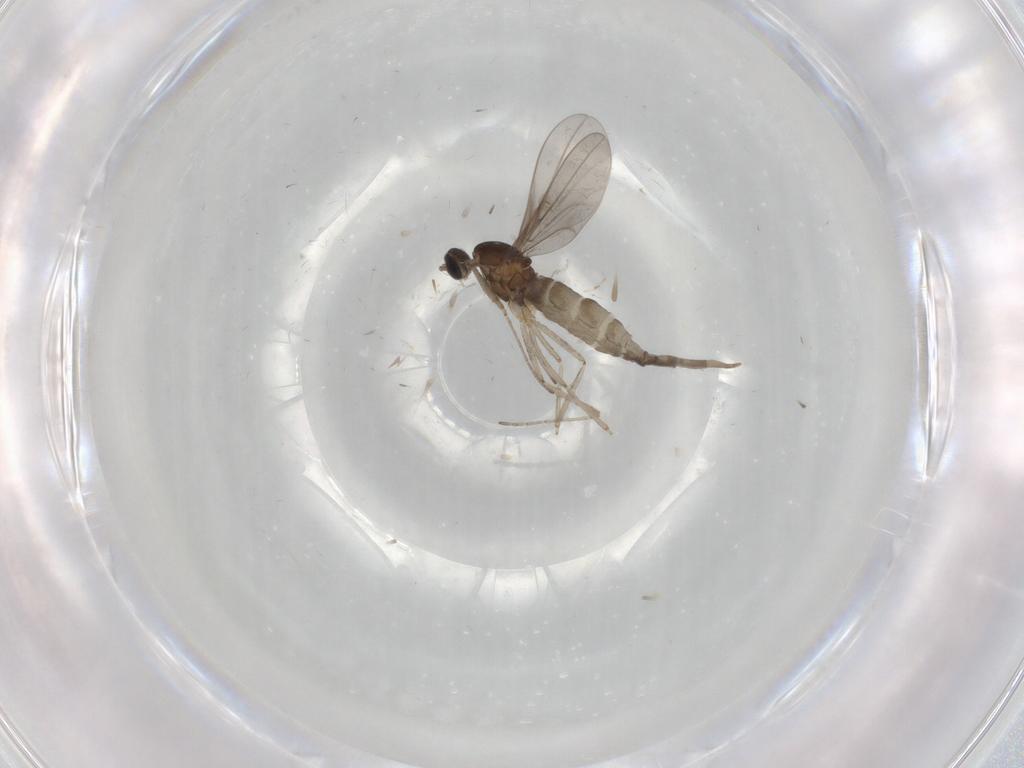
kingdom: Animalia
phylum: Arthropoda
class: Insecta
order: Diptera
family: Cecidomyiidae
